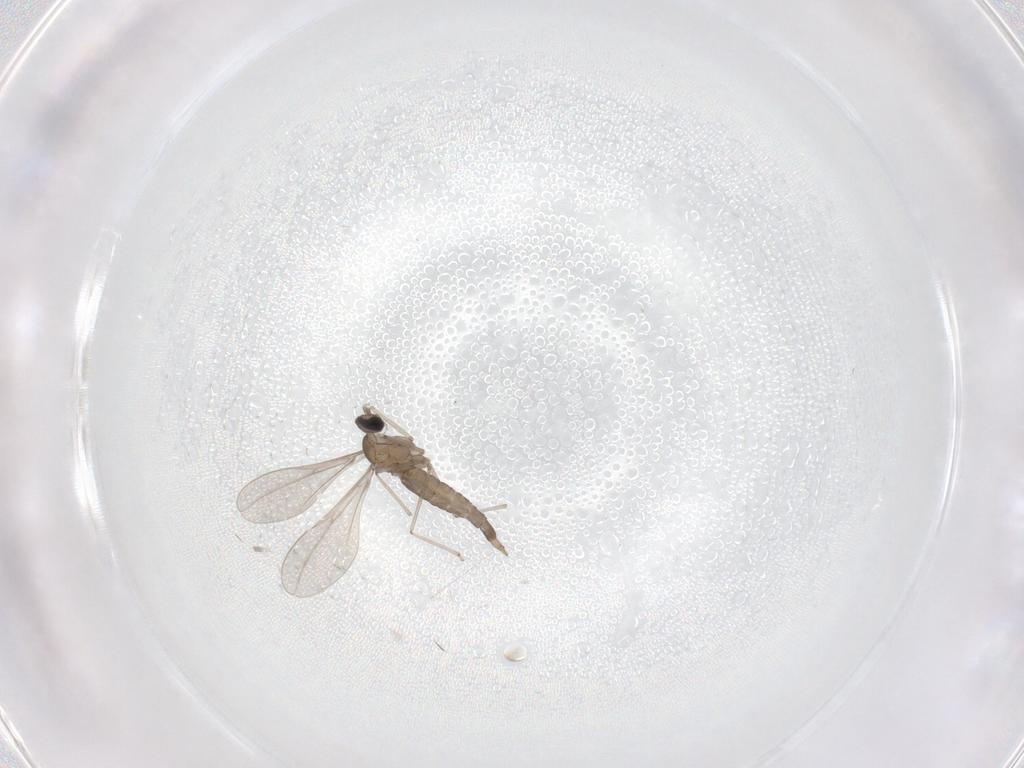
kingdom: Animalia
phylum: Arthropoda
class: Insecta
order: Diptera
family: Cecidomyiidae
